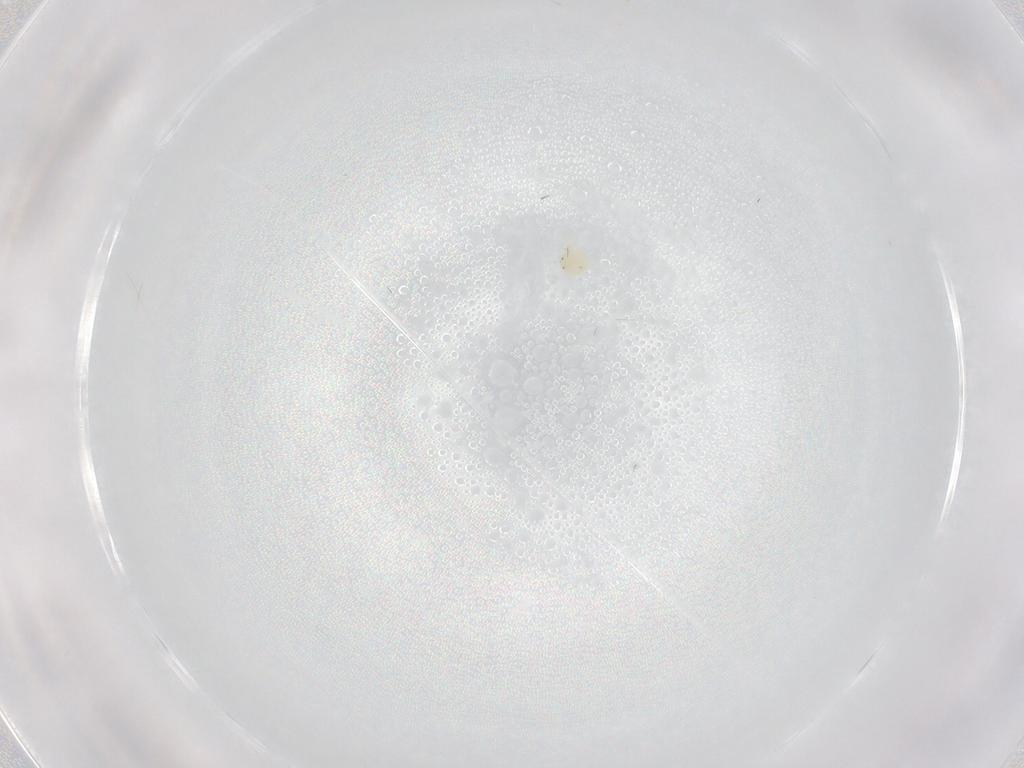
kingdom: Animalia
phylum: Arthropoda
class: Arachnida
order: Trombidiformes
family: Torrenticolidae
